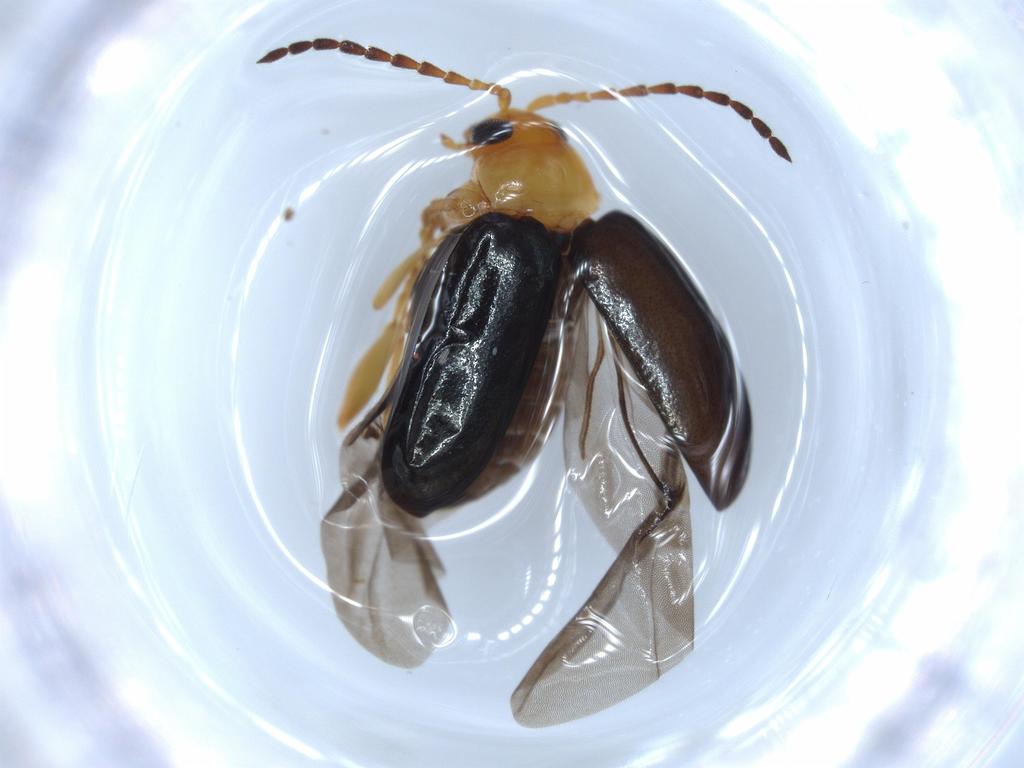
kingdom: Animalia
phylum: Arthropoda
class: Insecta
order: Coleoptera
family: Chrysomelidae
